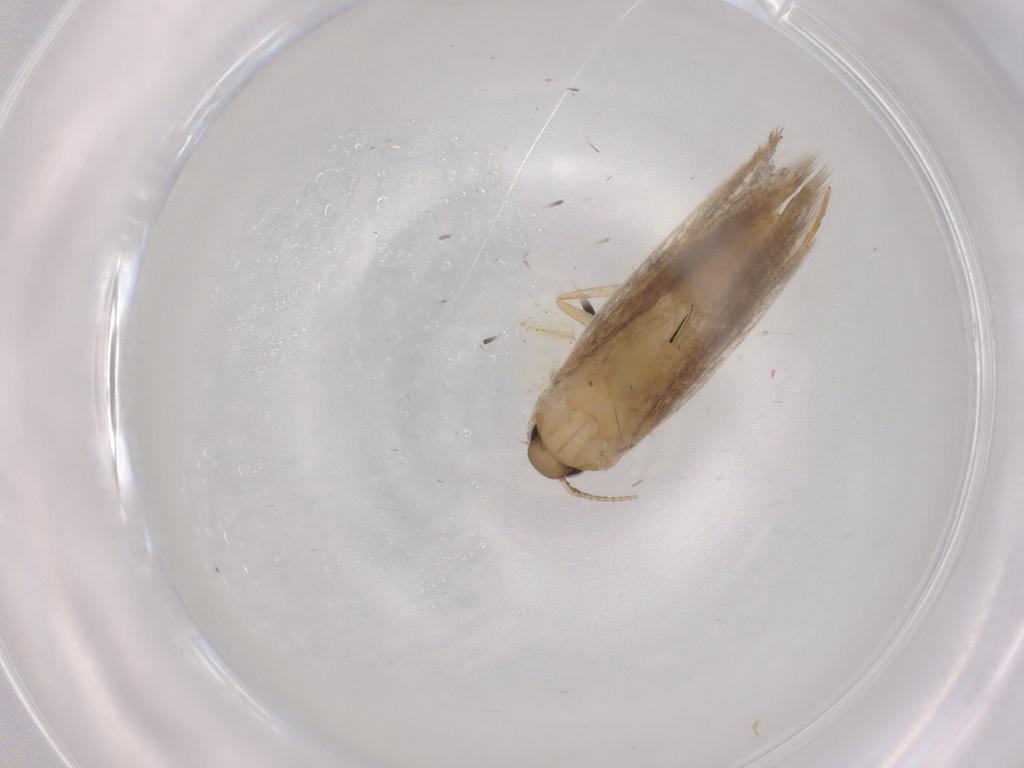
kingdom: Animalia
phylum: Arthropoda
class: Insecta
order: Lepidoptera
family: Autostichidae
